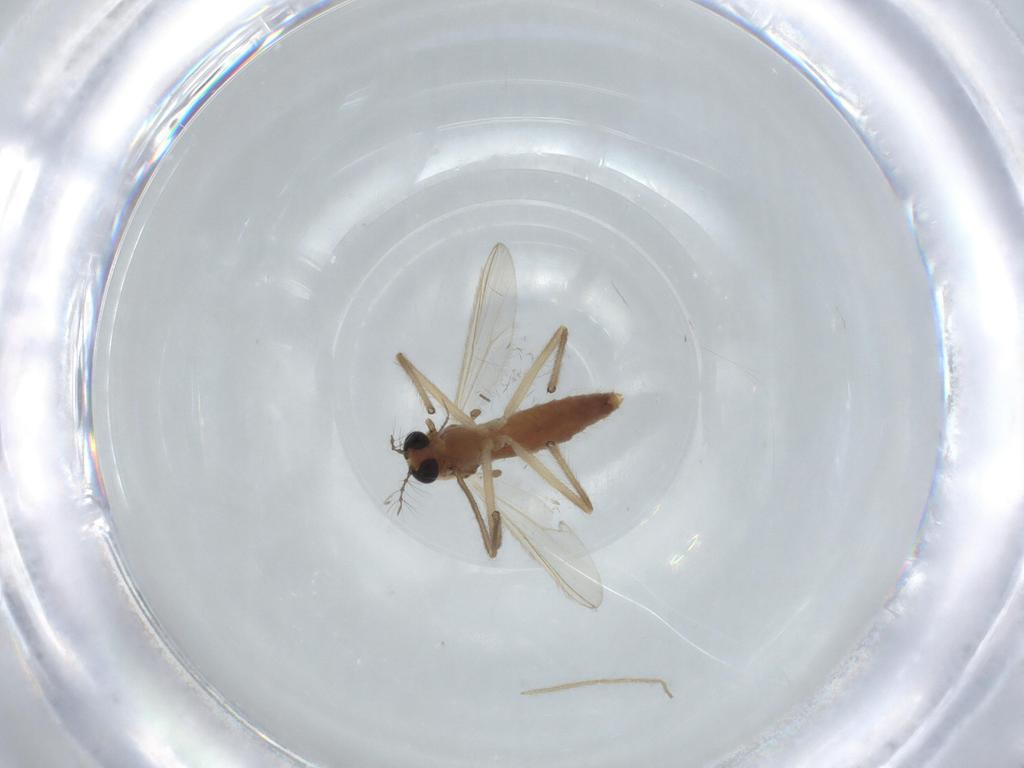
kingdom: Animalia
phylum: Arthropoda
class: Insecta
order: Diptera
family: Chironomidae
